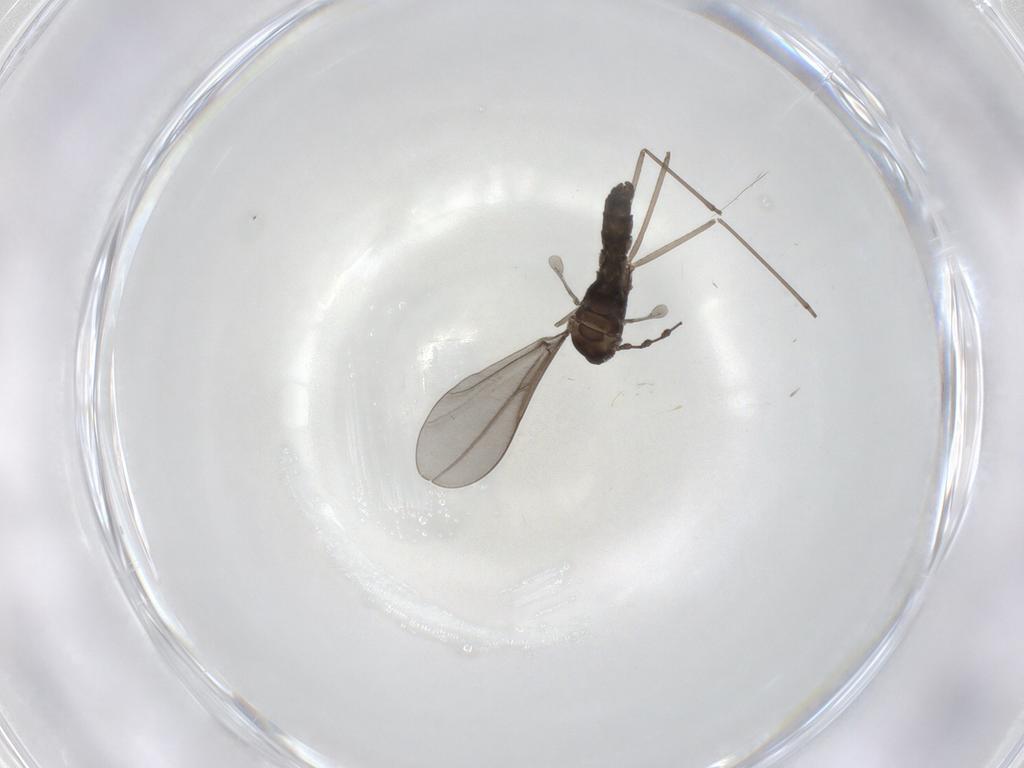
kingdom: Animalia
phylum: Arthropoda
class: Insecta
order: Diptera
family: Cecidomyiidae
